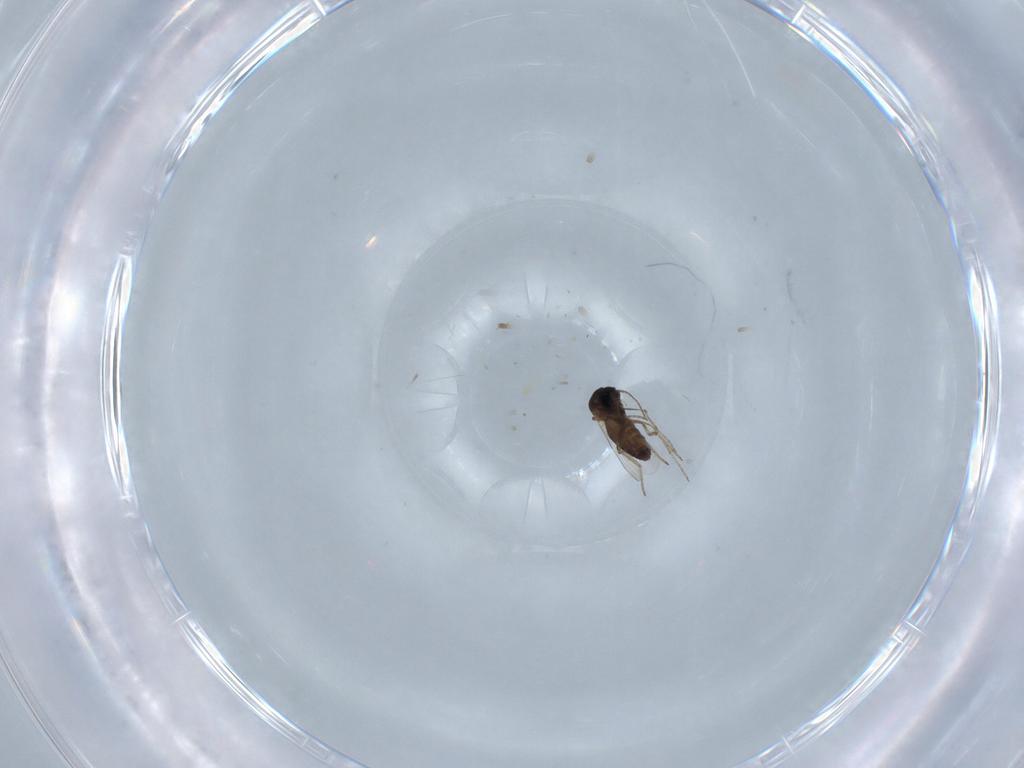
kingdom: Animalia
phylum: Arthropoda
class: Insecta
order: Diptera
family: Ceratopogonidae
